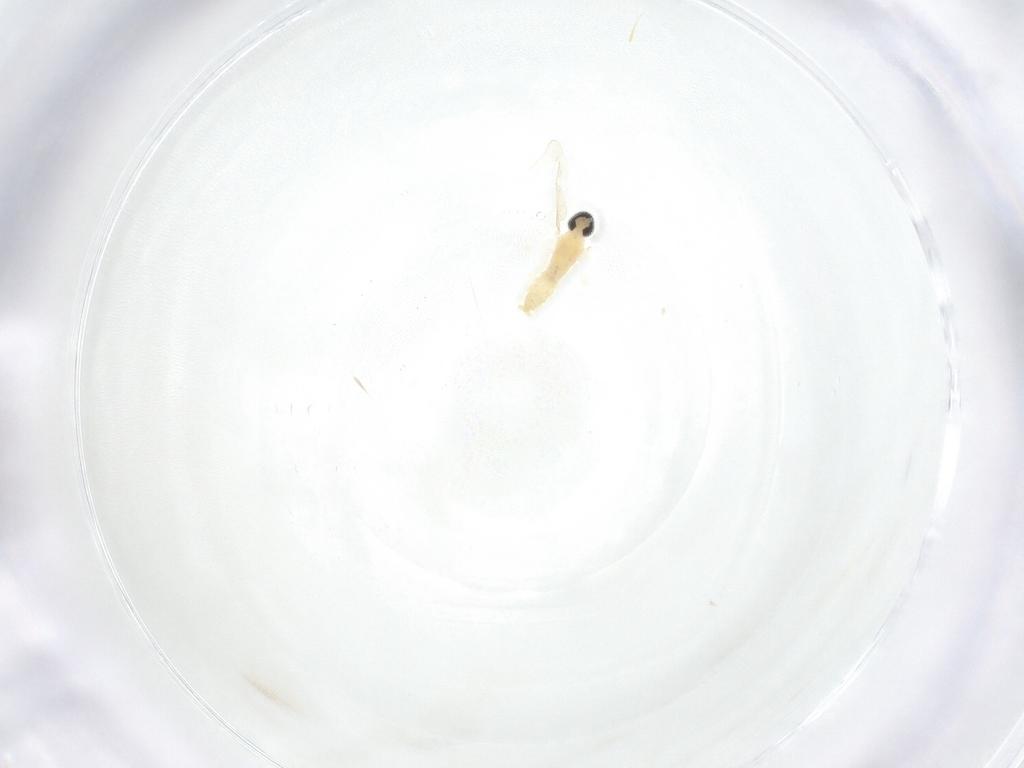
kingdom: Animalia
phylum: Arthropoda
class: Insecta
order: Diptera
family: Cecidomyiidae
